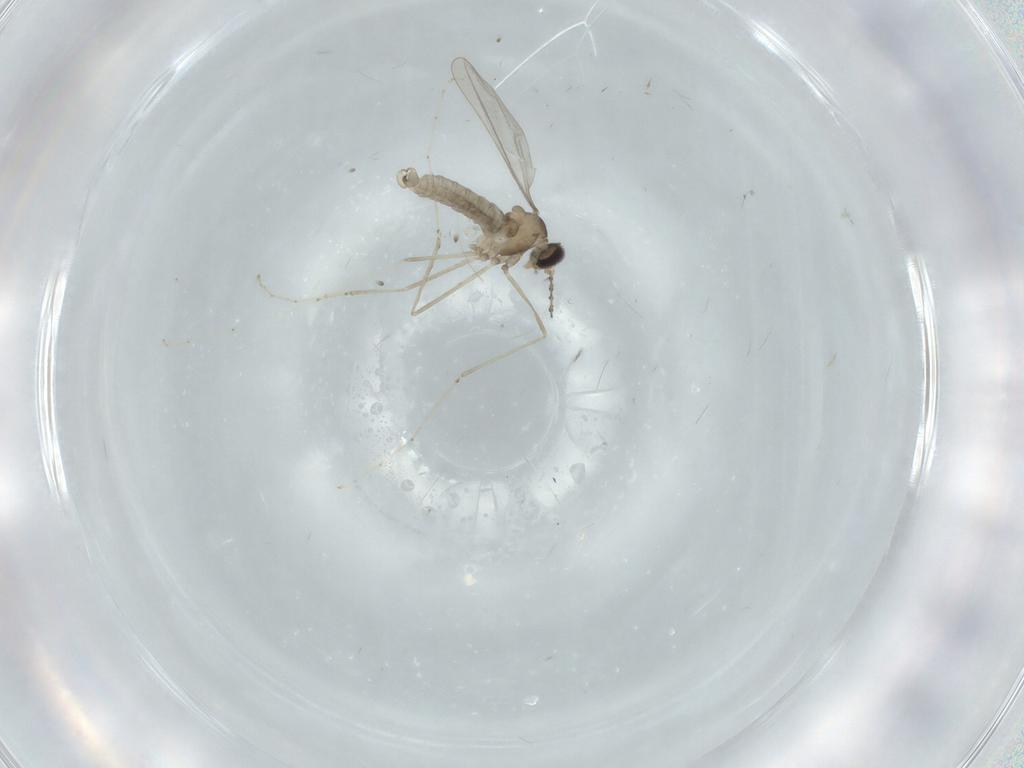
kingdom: Animalia
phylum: Arthropoda
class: Insecta
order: Diptera
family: Cecidomyiidae
